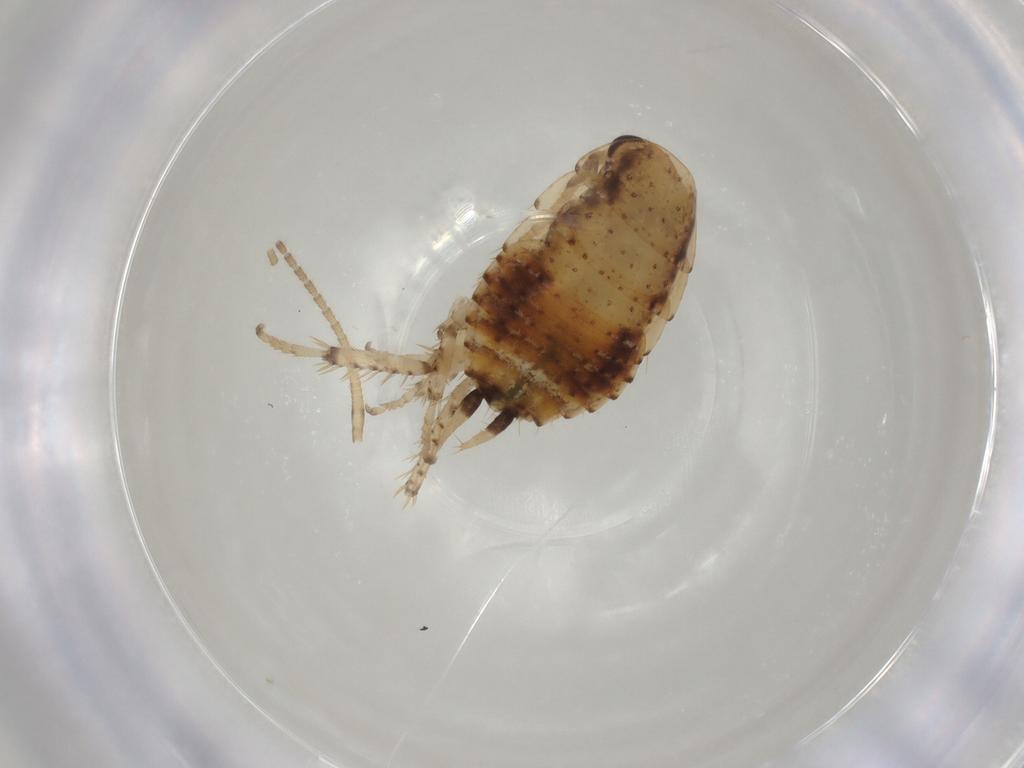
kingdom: Animalia
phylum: Arthropoda
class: Insecta
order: Blattodea
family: Blaberidae
